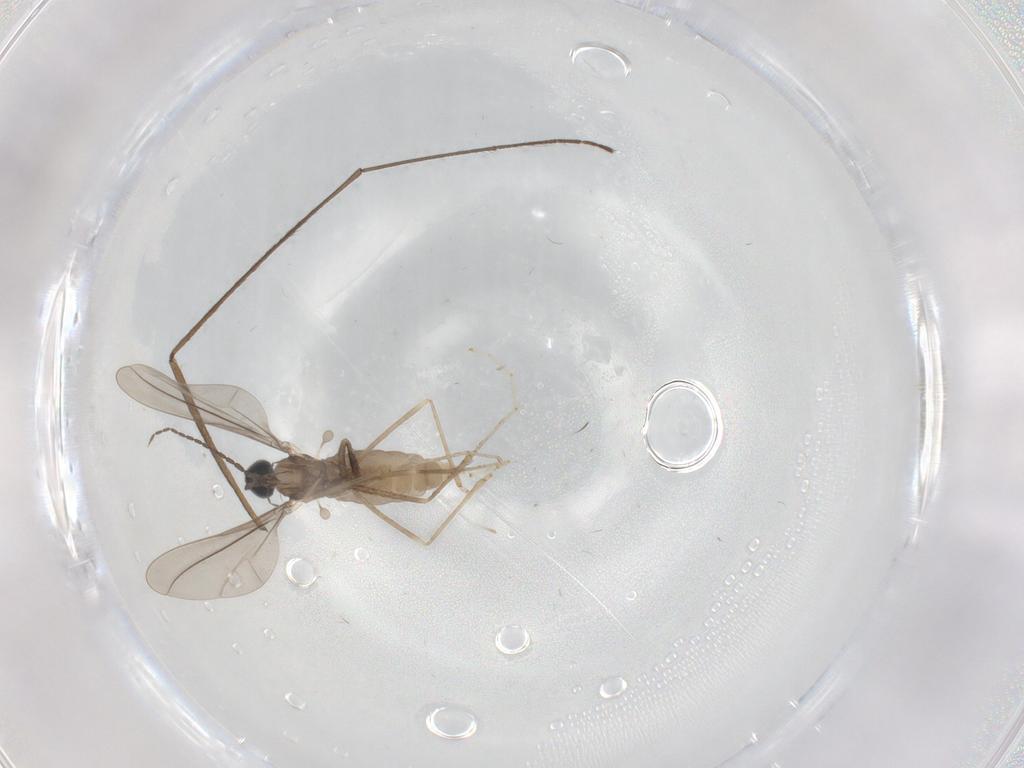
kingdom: Animalia
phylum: Arthropoda
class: Insecta
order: Diptera
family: Cecidomyiidae
